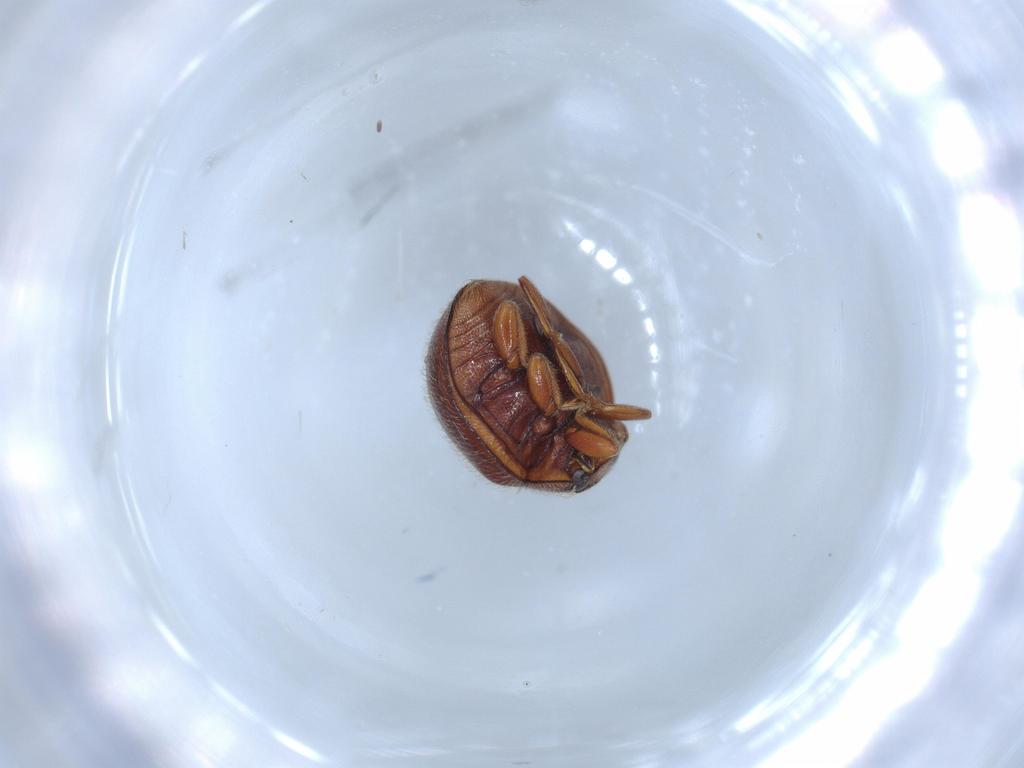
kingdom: Animalia
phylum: Arthropoda
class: Insecta
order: Coleoptera
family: Coccinellidae
